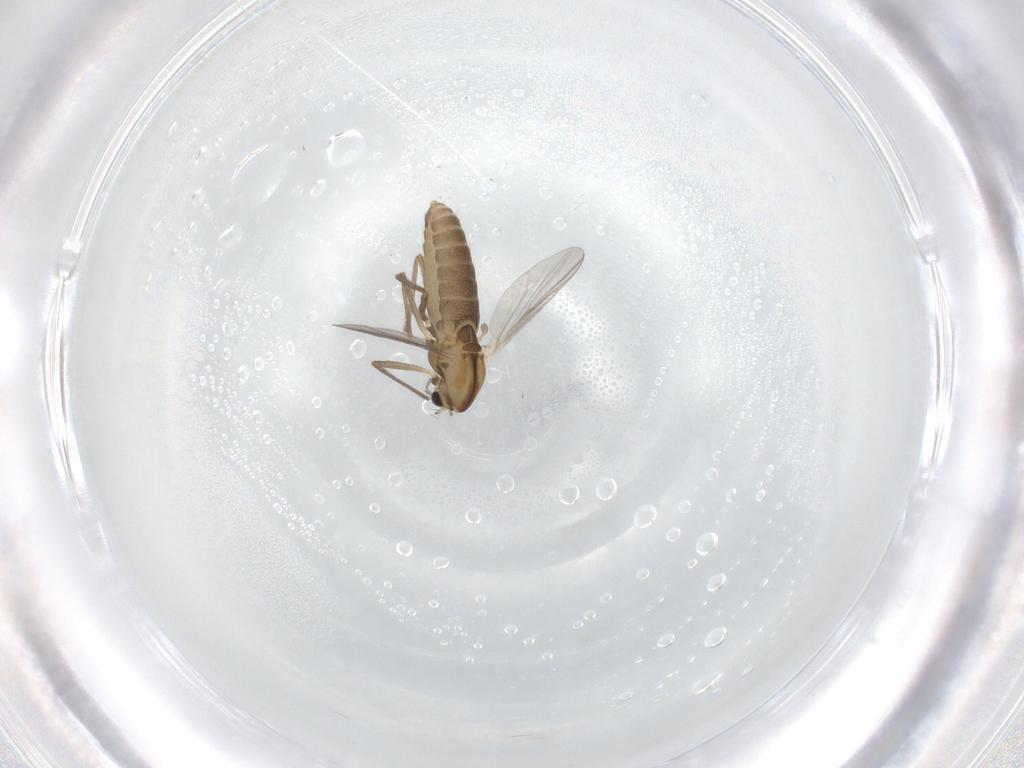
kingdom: Animalia
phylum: Arthropoda
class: Insecta
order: Diptera
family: Chironomidae
